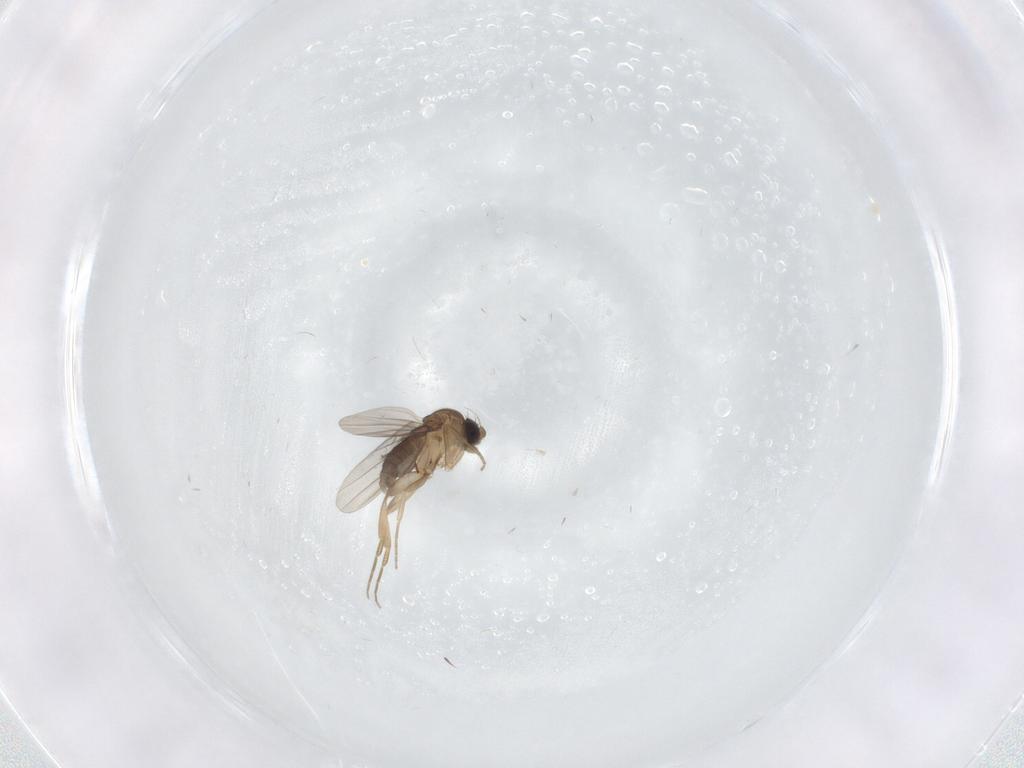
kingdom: Animalia
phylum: Arthropoda
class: Insecta
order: Diptera
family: Phoridae
